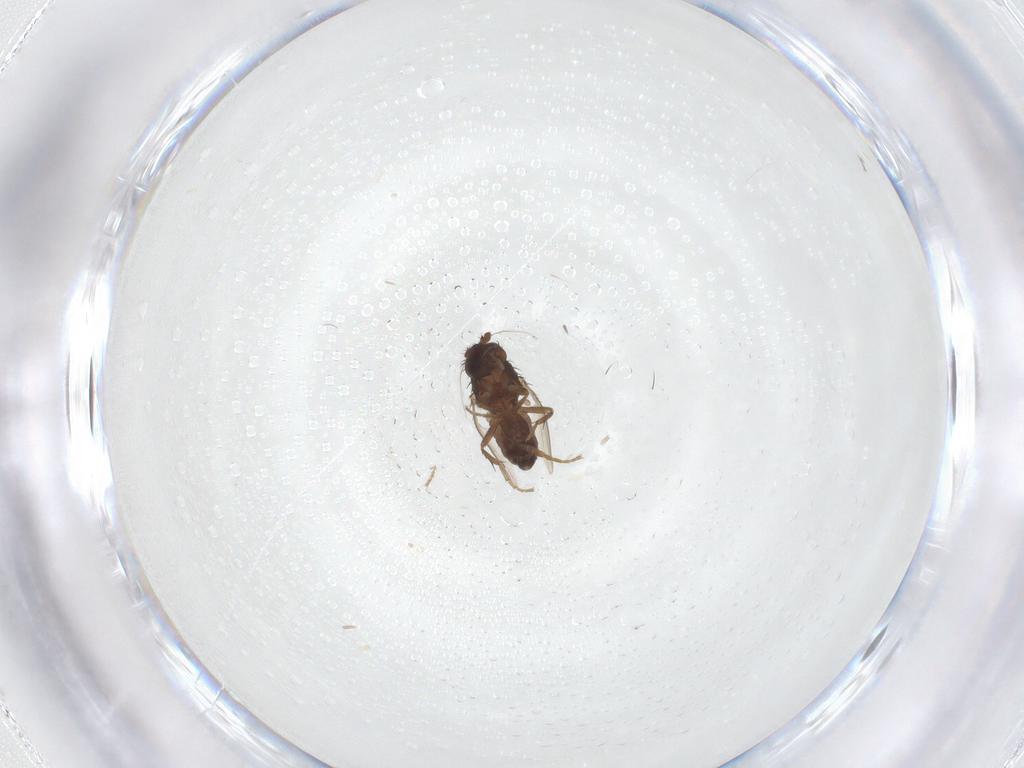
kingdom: Animalia
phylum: Arthropoda
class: Insecta
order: Diptera
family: Sphaeroceridae
